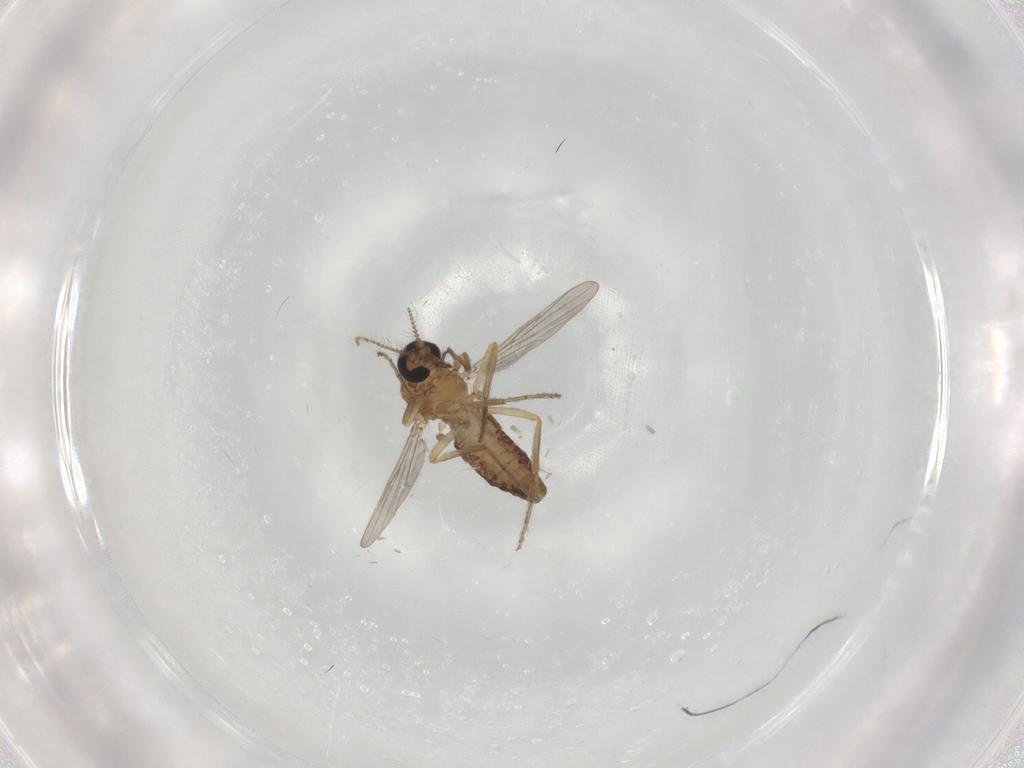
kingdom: Animalia
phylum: Arthropoda
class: Insecta
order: Diptera
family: Ceratopogonidae
